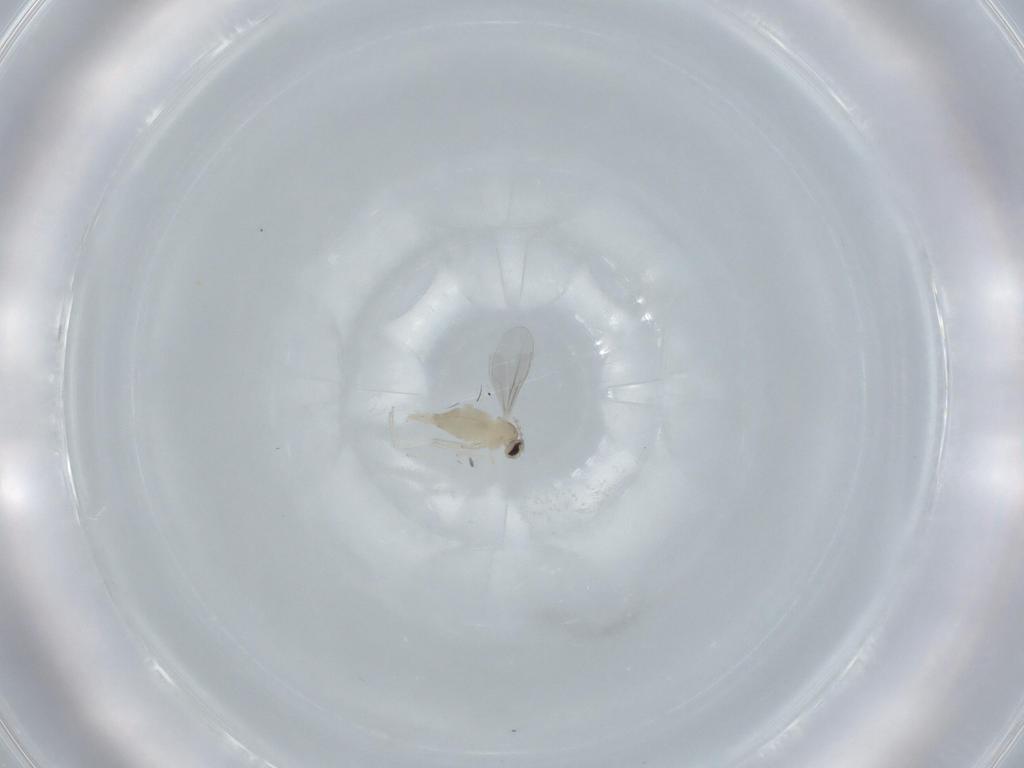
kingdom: Animalia
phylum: Arthropoda
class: Insecta
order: Diptera
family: Cecidomyiidae
